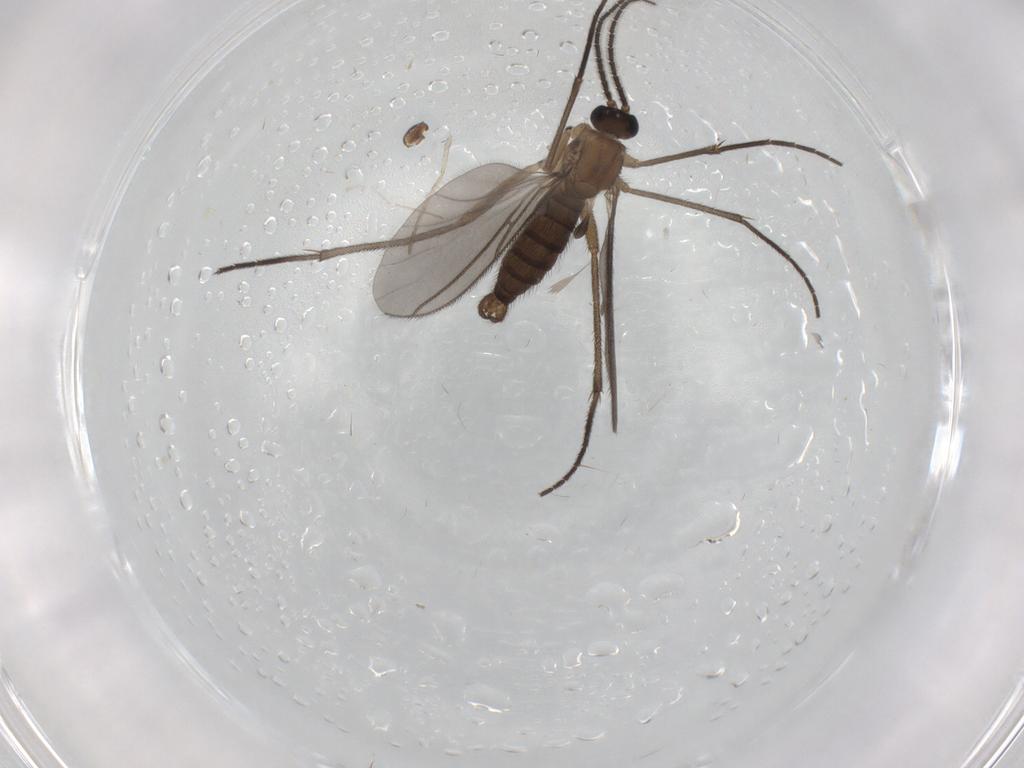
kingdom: Animalia
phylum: Arthropoda
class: Insecta
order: Diptera
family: Sciaridae
